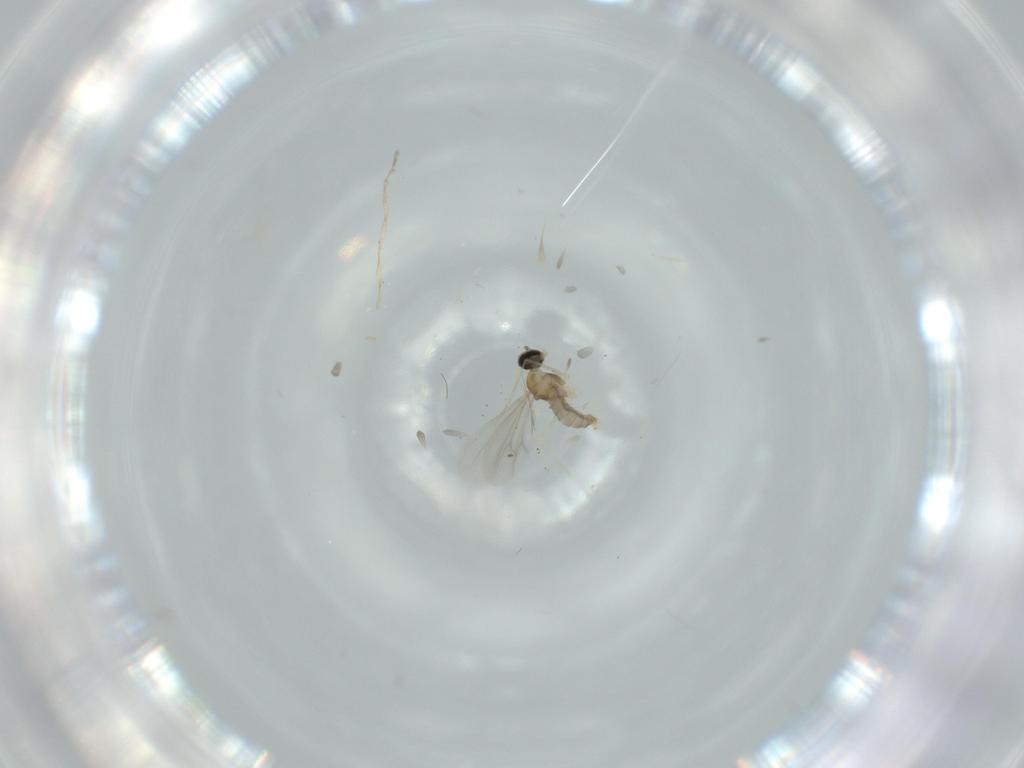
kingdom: Animalia
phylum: Arthropoda
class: Insecta
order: Diptera
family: Cecidomyiidae
